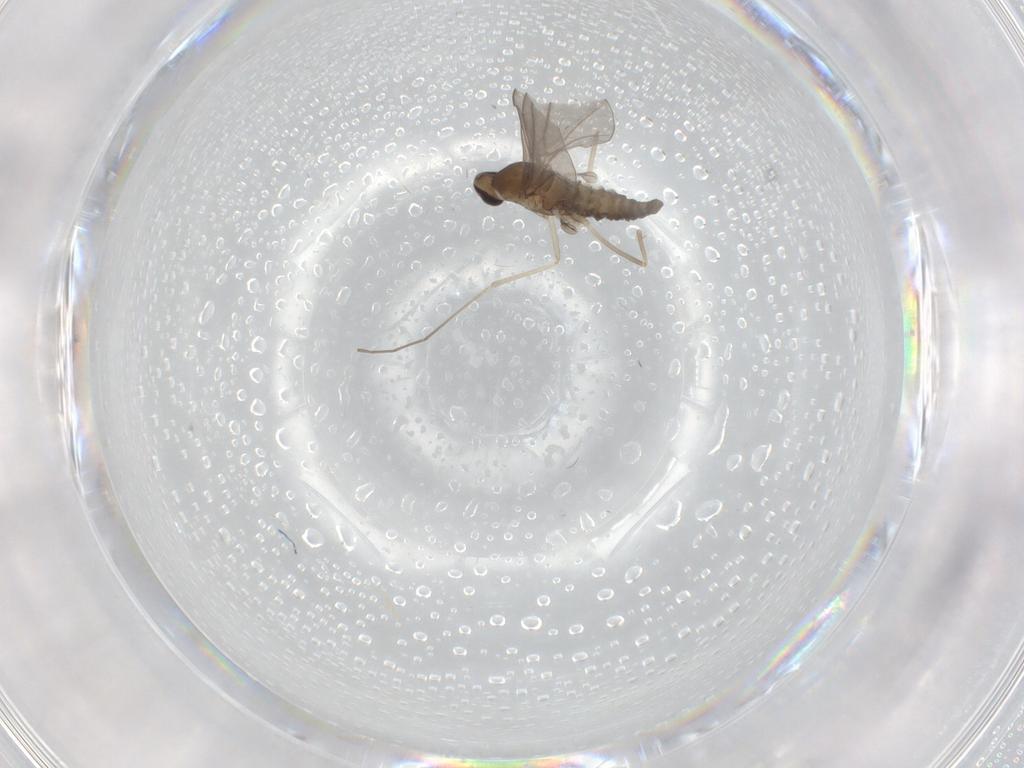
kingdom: Animalia
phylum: Arthropoda
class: Insecta
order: Diptera
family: Cecidomyiidae
